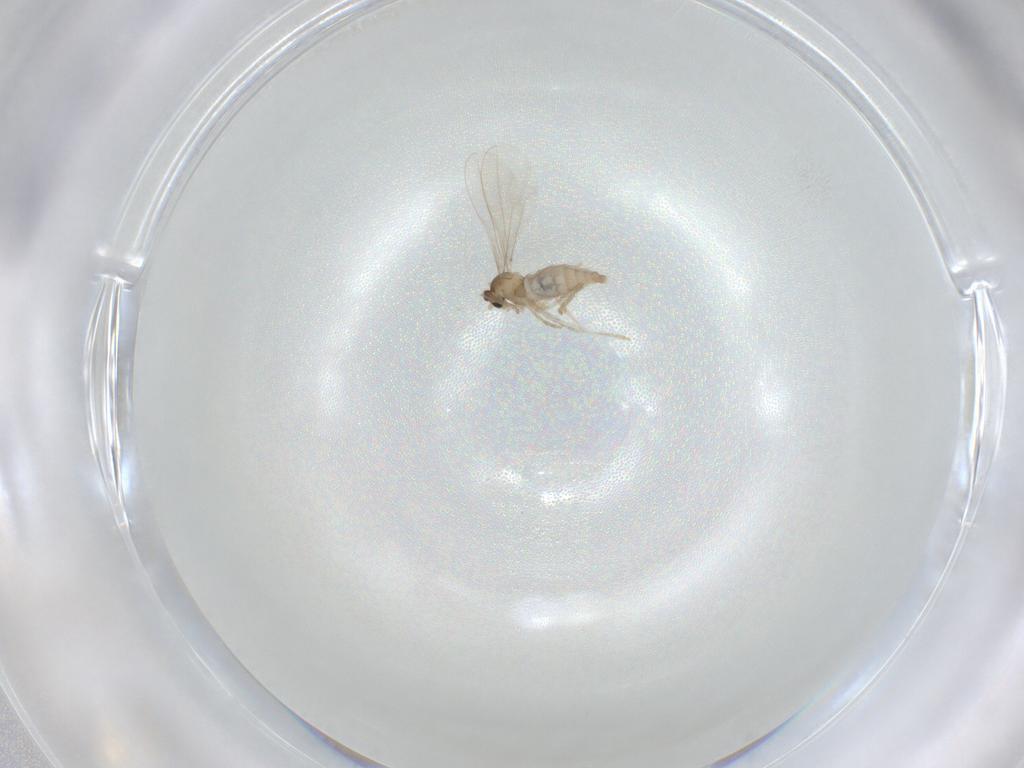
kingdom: Animalia
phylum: Arthropoda
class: Insecta
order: Diptera
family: Cecidomyiidae
